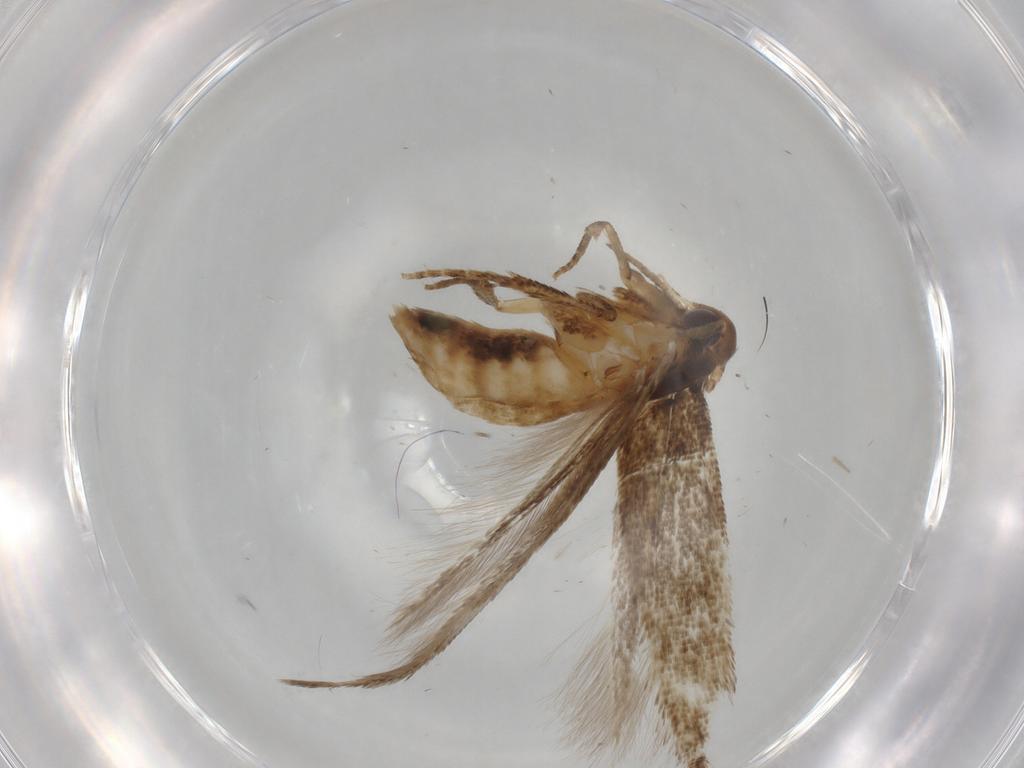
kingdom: Animalia
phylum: Arthropoda
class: Insecta
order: Lepidoptera
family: Cosmopterigidae
